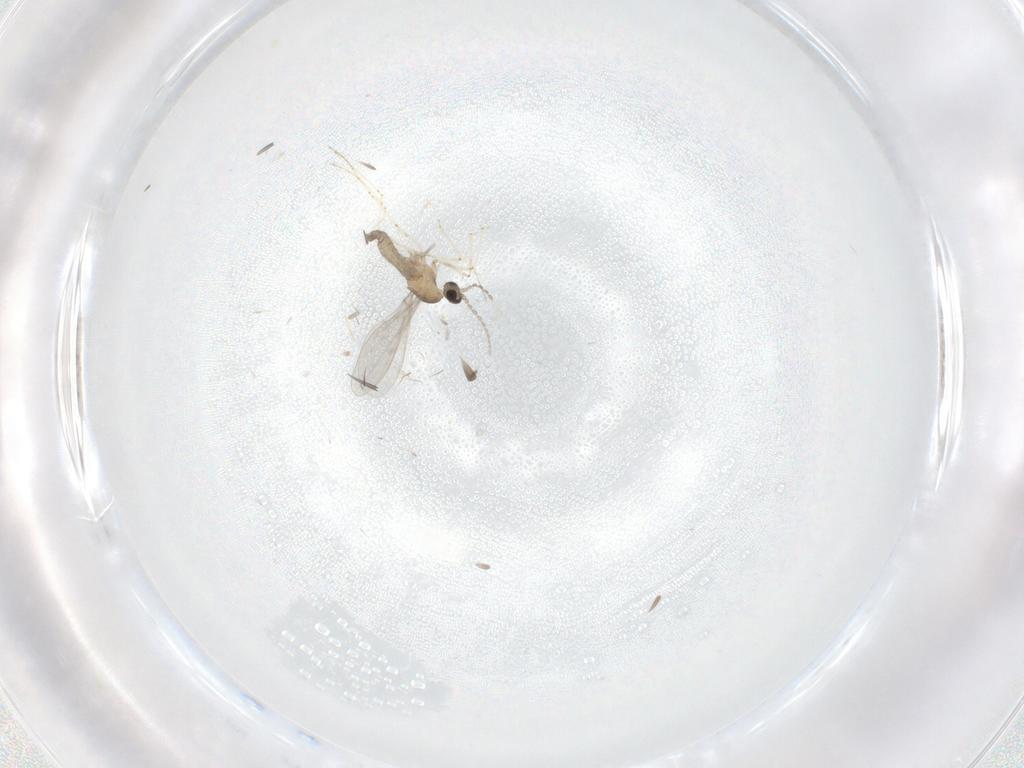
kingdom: Animalia
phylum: Arthropoda
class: Insecta
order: Diptera
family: Cecidomyiidae
